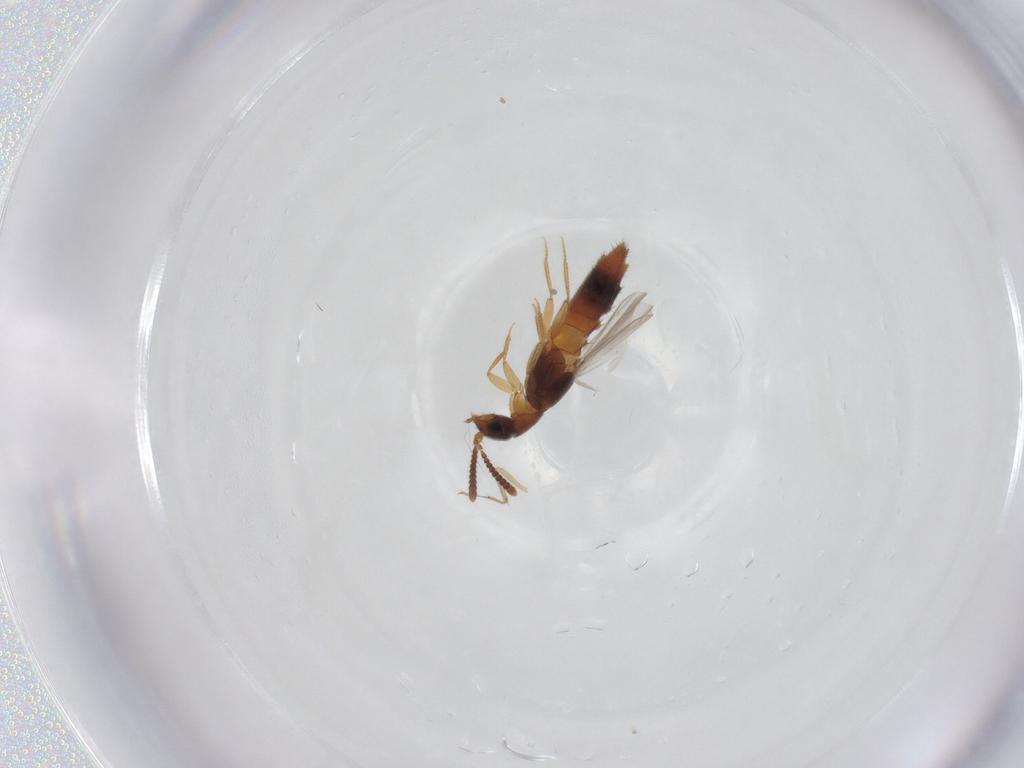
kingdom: Animalia
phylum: Arthropoda
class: Insecta
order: Coleoptera
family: Staphylinidae
